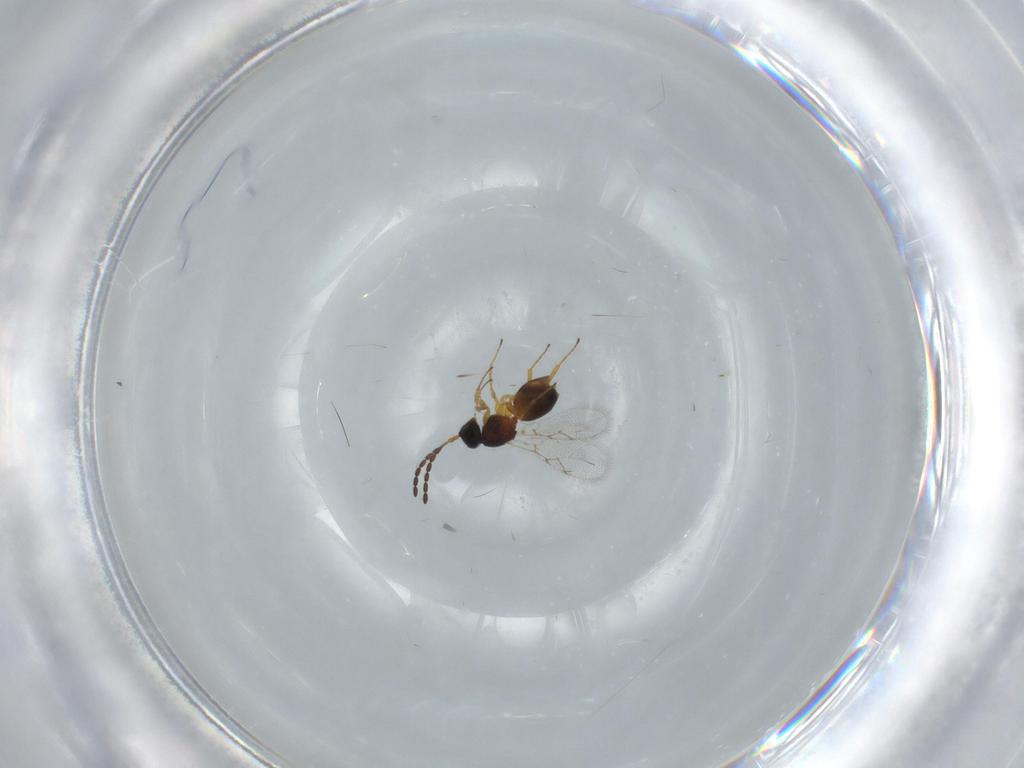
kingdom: Animalia
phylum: Arthropoda
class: Insecta
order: Hymenoptera
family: Figitidae
